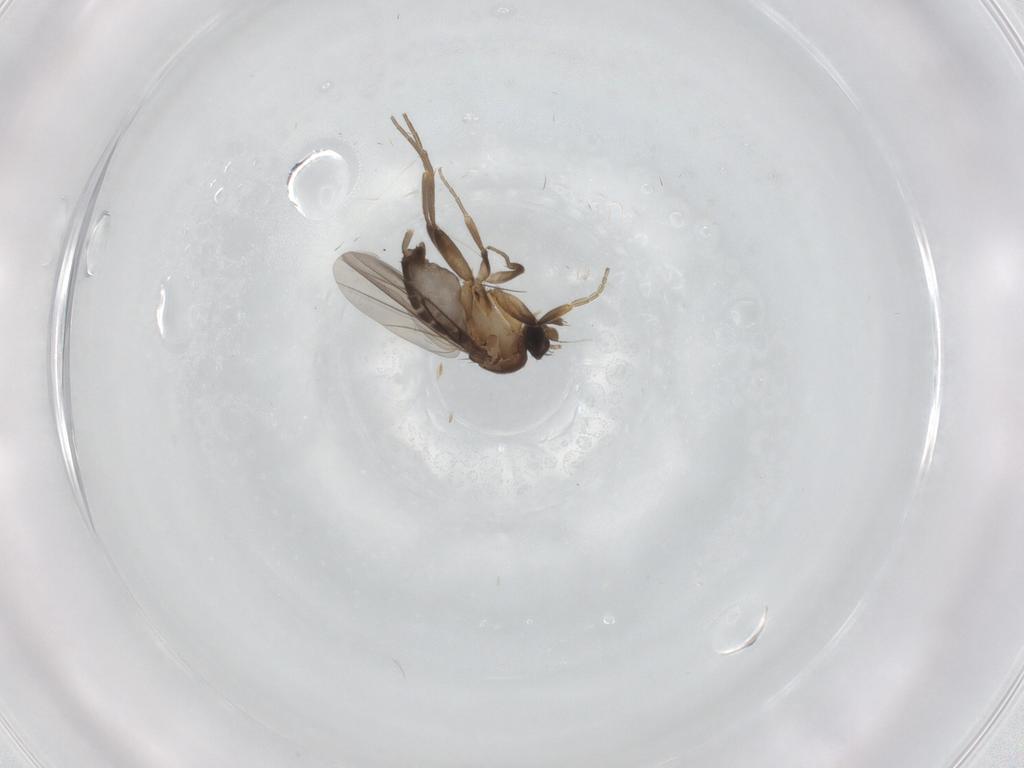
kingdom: Animalia
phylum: Arthropoda
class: Insecta
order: Diptera
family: Phoridae
